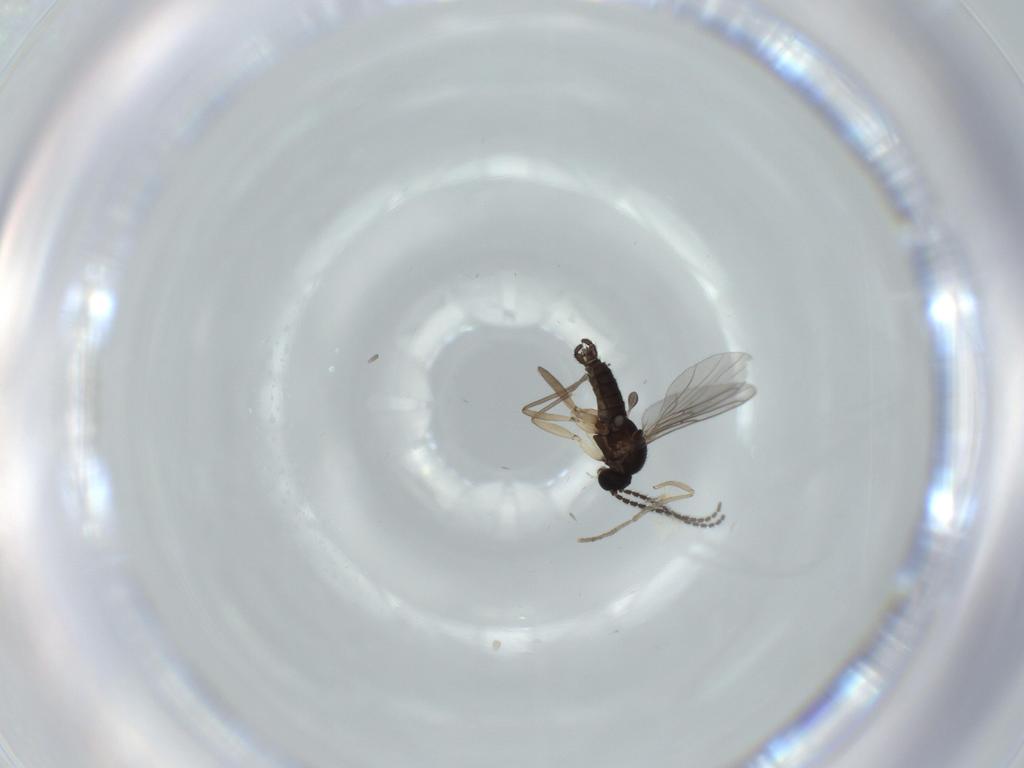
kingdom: Animalia
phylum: Arthropoda
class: Insecta
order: Diptera
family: Sciaridae
